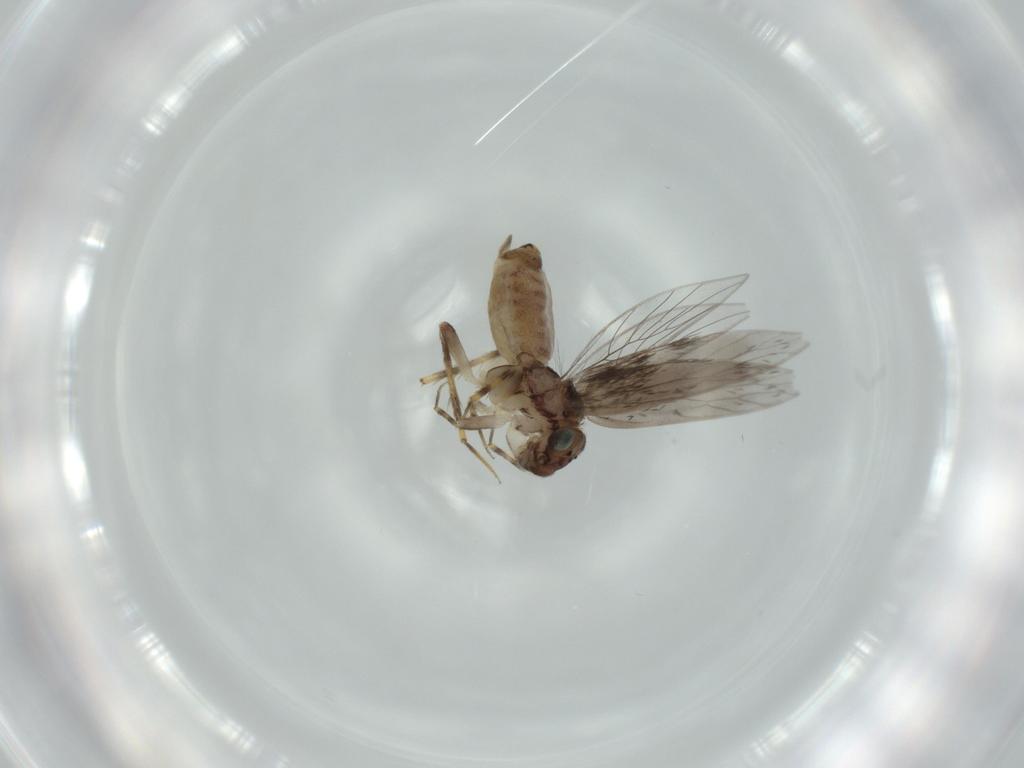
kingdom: Animalia
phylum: Arthropoda
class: Insecta
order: Psocodea
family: Lepidopsocidae
